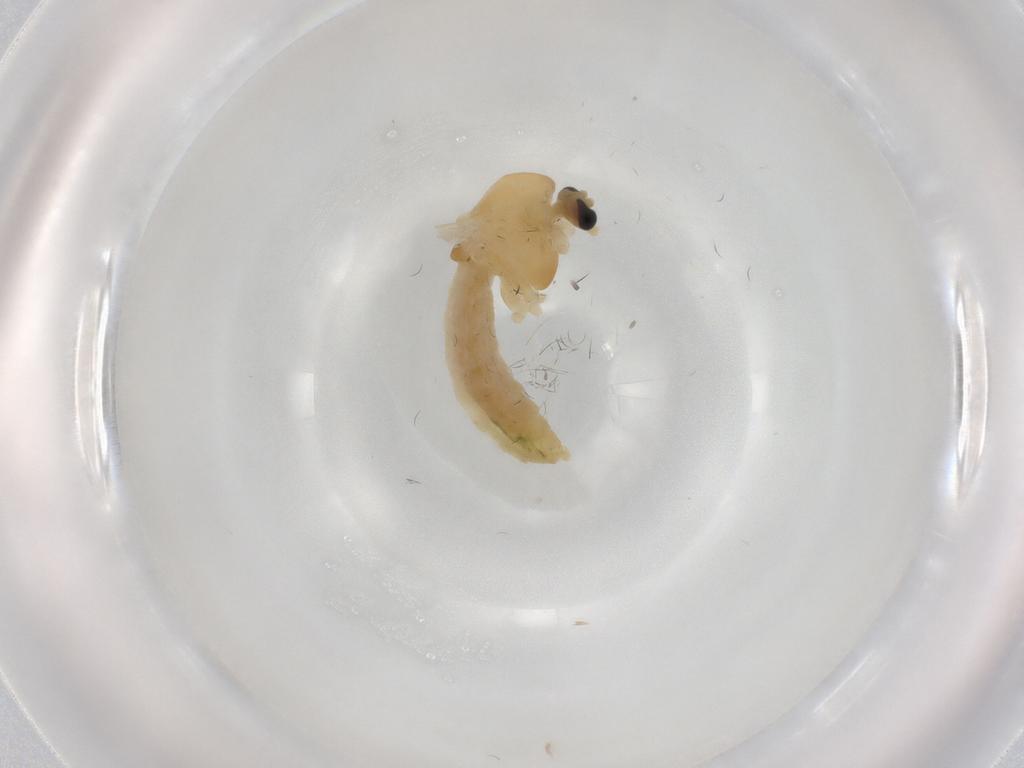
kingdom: Animalia
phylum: Arthropoda
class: Insecta
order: Diptera
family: Chironomidae
